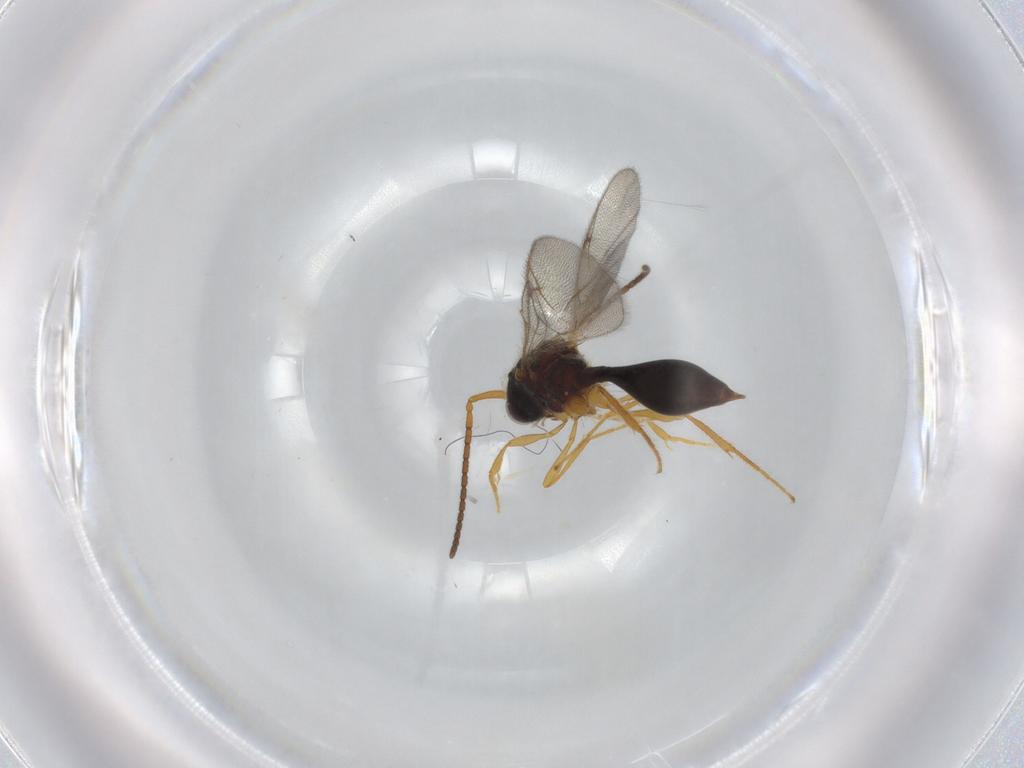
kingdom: Animalia
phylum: Arthropoda
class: Insecta
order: Hymenoptera
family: Diapriidae
